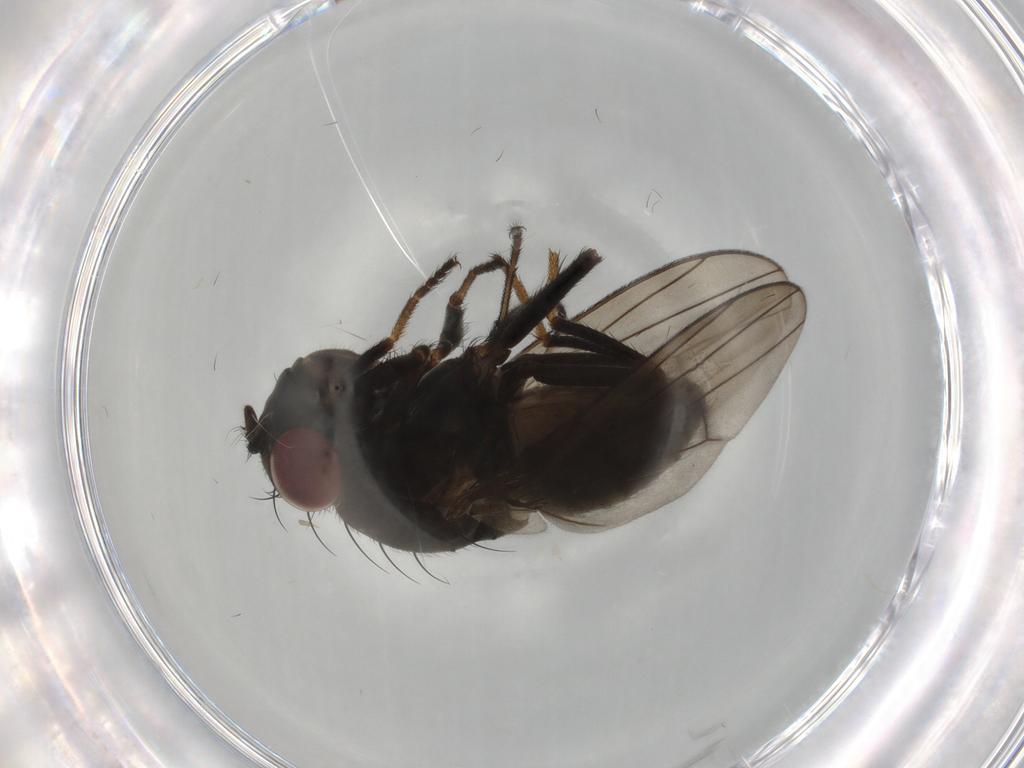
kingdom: Animalia
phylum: Arthropoda
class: Insecta
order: Diptera
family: Ephydridae
